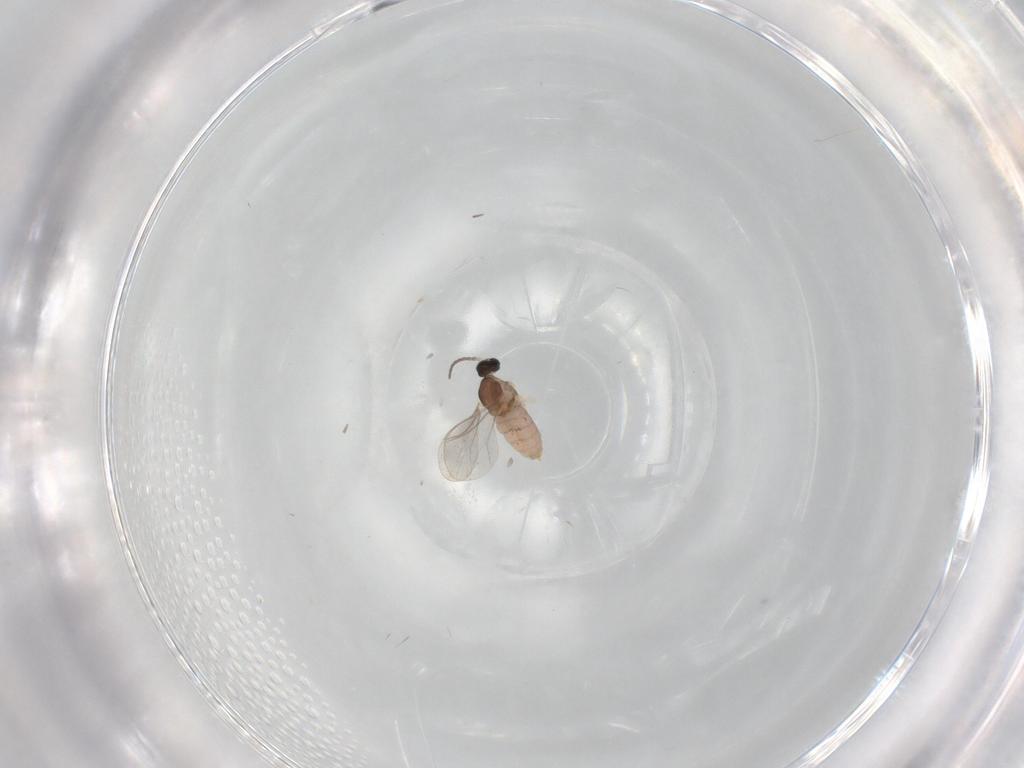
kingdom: Animalia
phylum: Arthropoda
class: Insecta
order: Diptera
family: Cecidomyiidae
